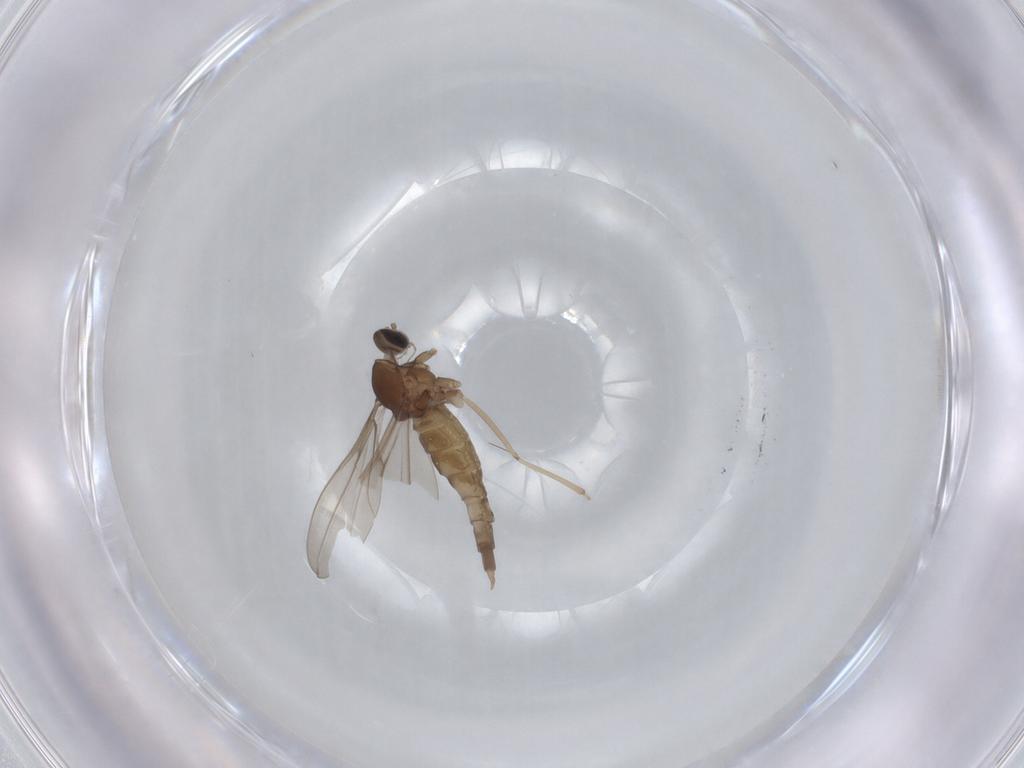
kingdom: Animalia
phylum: Arthropoda
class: Insecta
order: Diptera
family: Cecidomyiidae
